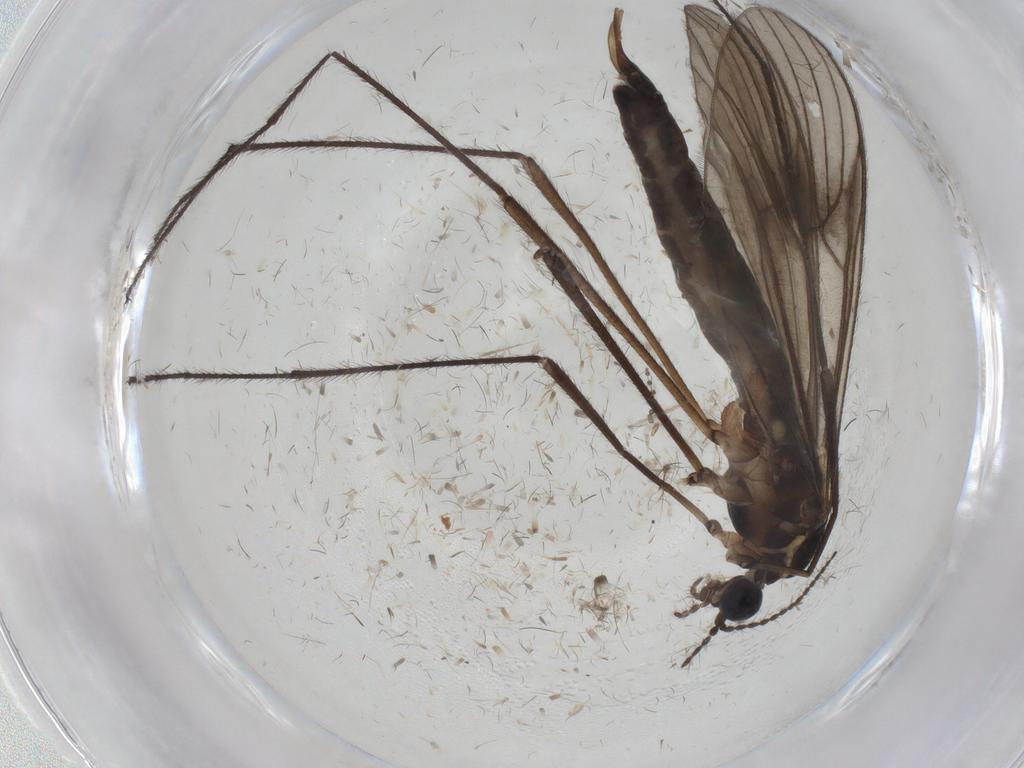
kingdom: Animalia
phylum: Arthropoda
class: Insecta
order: Diptera
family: Limoniidae
